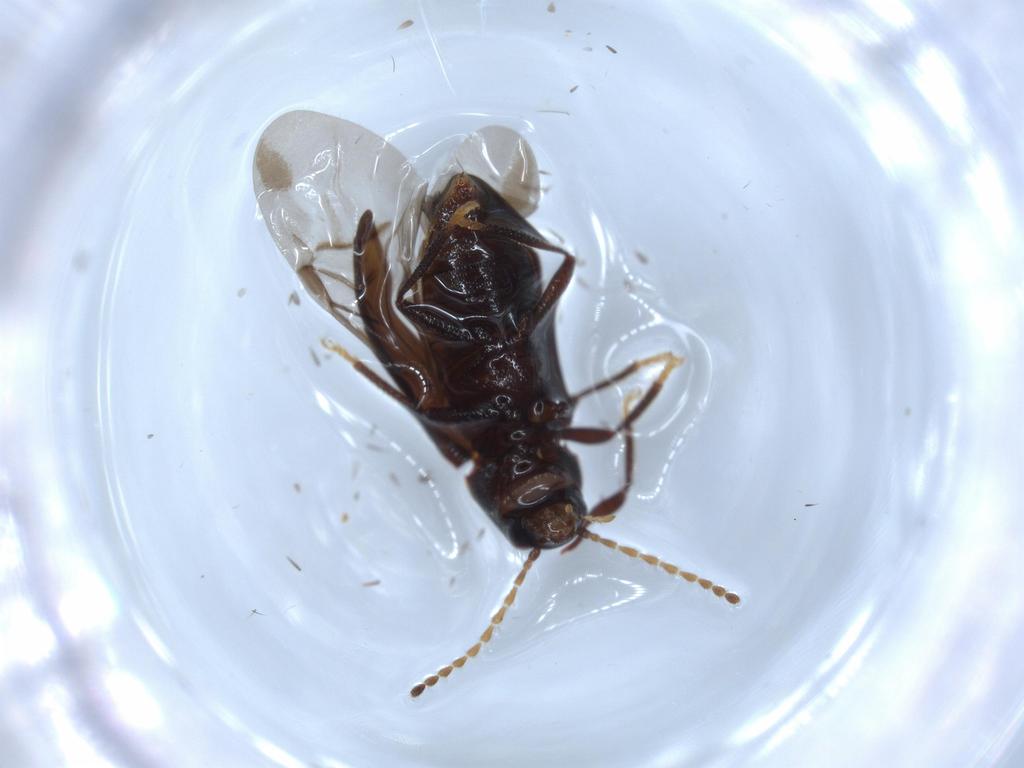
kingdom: Animalia
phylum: Arthropoda
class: Insecta
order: Coleoptera
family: Ptilodactylidae
